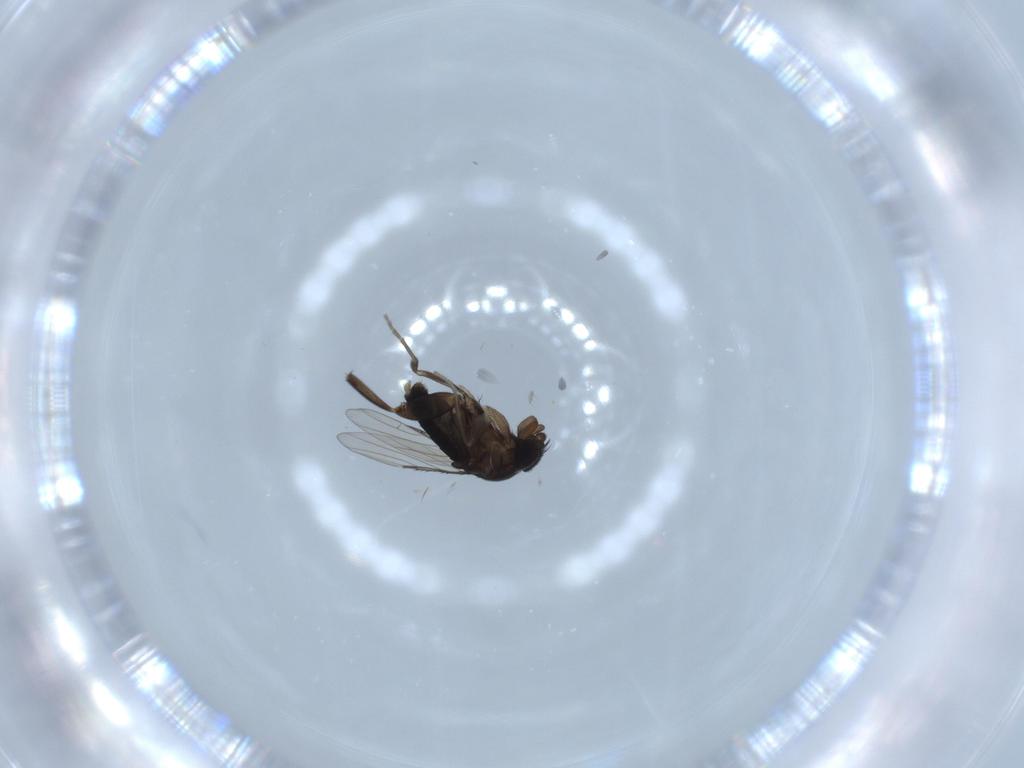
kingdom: Animalia
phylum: Arthropoda
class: Insecta
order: Diptera
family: Phoridae
